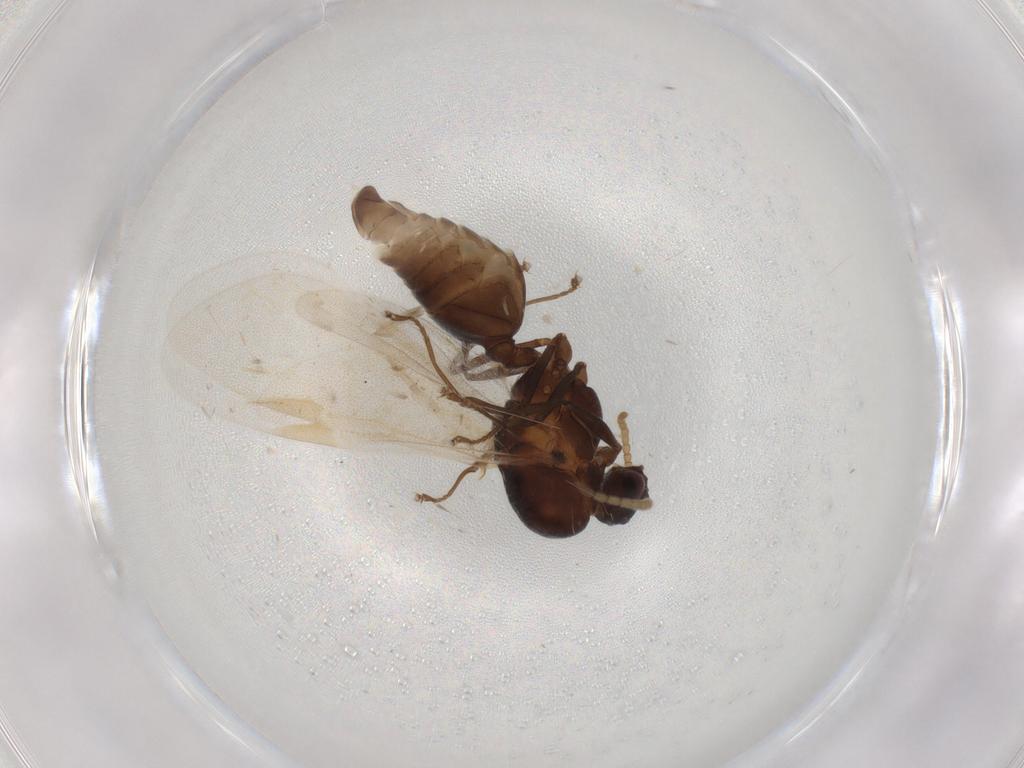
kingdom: Animalia
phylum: Arthropoda
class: Insecta
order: Hymenoptera
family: Formicidae
